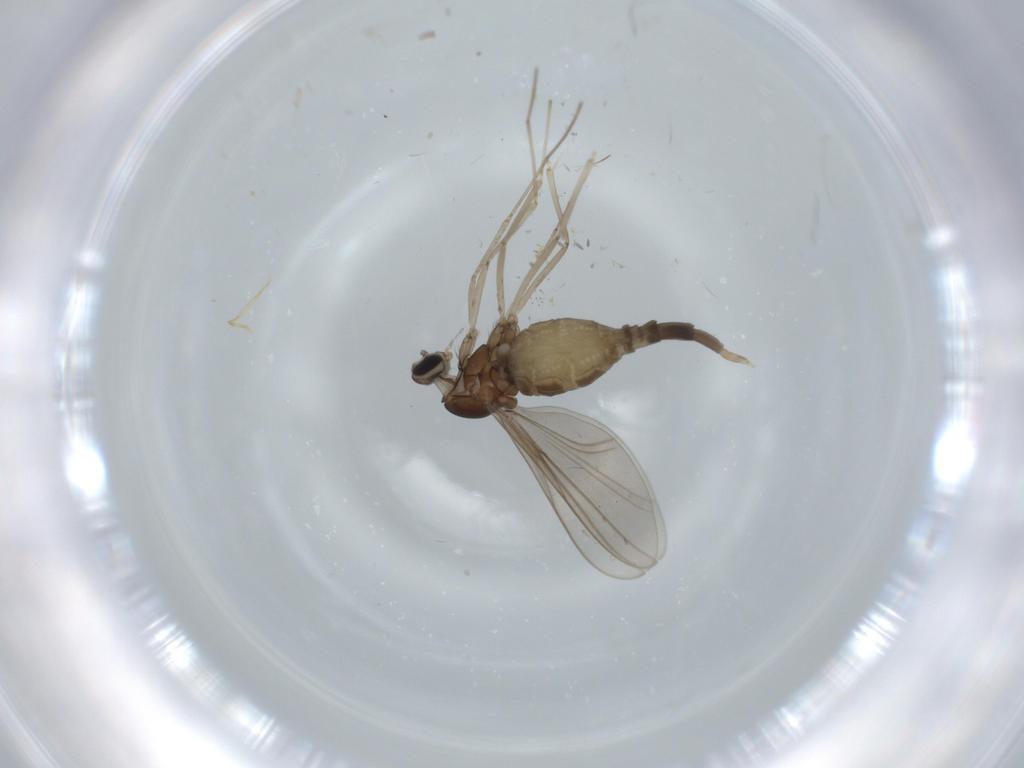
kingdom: Animalia
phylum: Arthropoda
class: Insecta
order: Diptera
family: Cecidomyiidae
